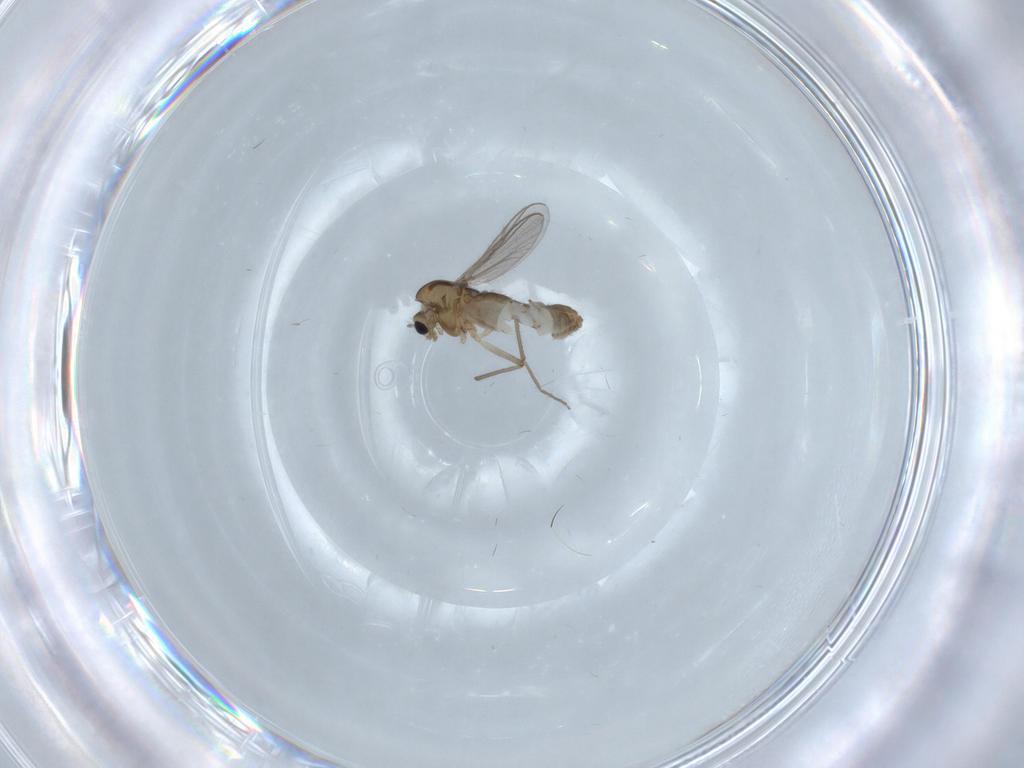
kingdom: Animalia
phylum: Arthropoda
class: Insecta
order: Diptera
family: Chironomidae
